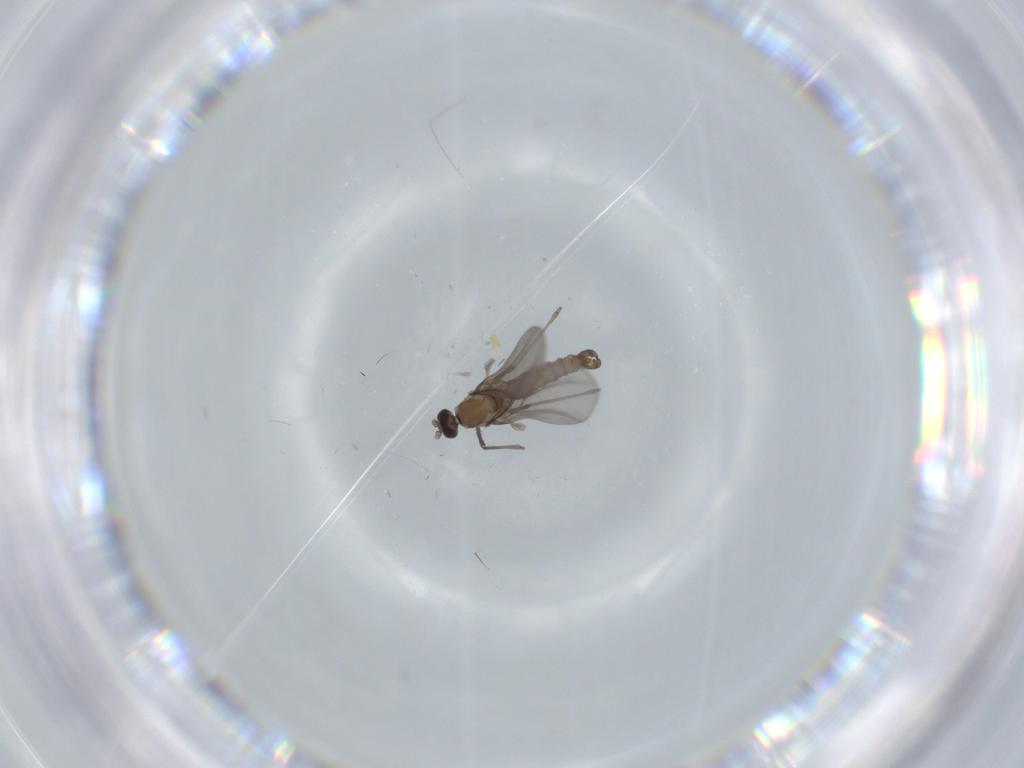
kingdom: Animalia
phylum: Arthropoda
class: Insecta
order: Diptera
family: Cecidomyiidae
